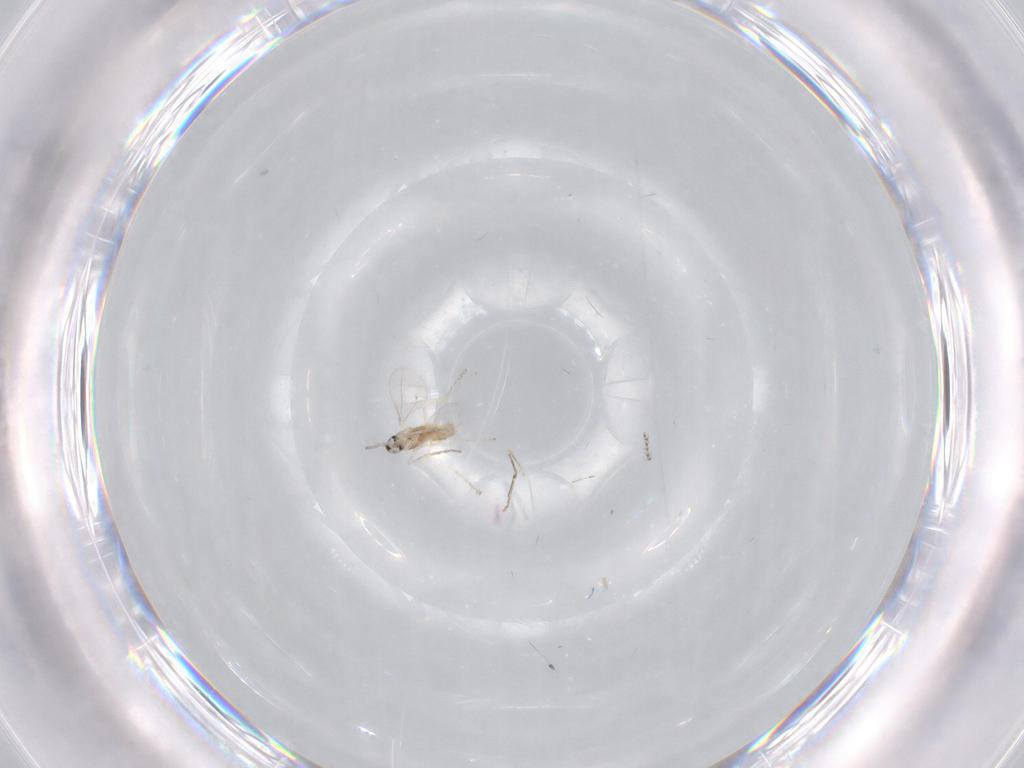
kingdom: Animalia
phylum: Arthropoda
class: Insecta
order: Diptera
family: Cecidomyiidae
